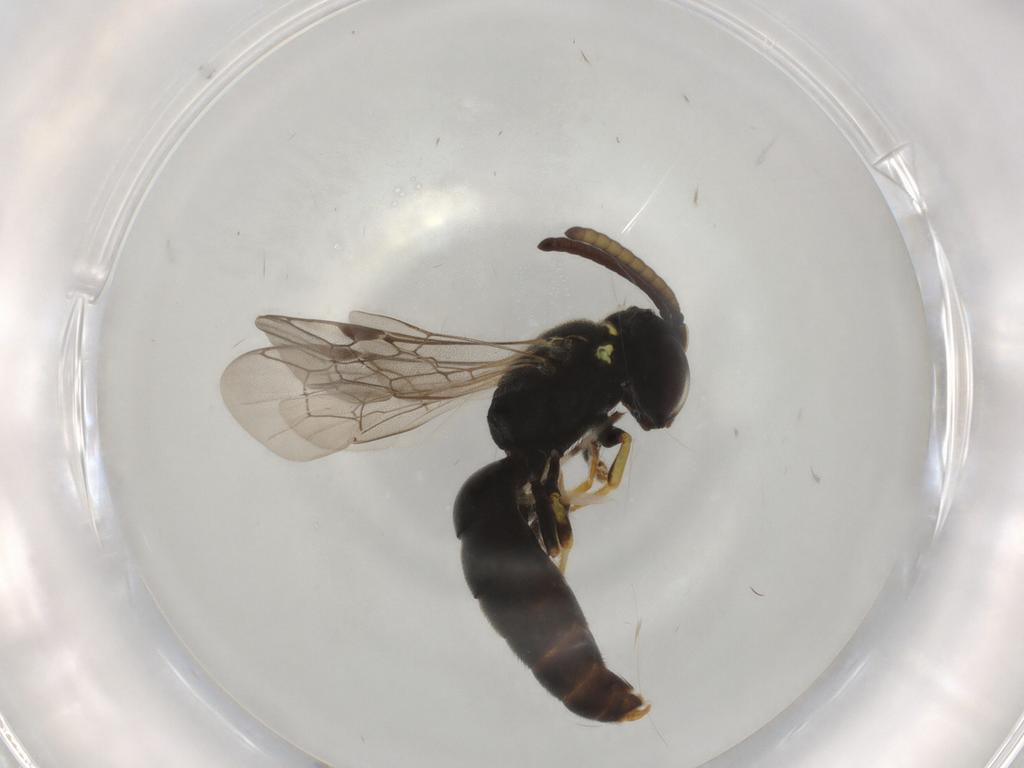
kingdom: Animalia
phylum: Arthropoda
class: Insecta
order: Hymenoptera
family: Colletidae
